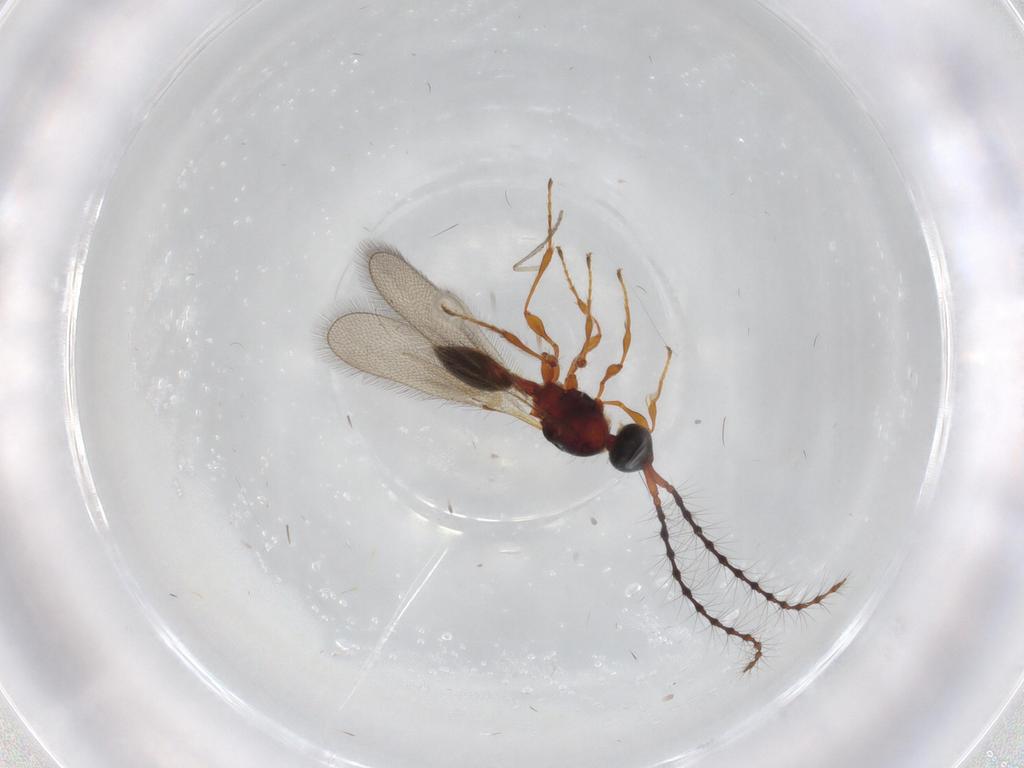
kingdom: Animalia
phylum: Arthropoda
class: Insecta
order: Hymenoptera
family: Diapriidae
